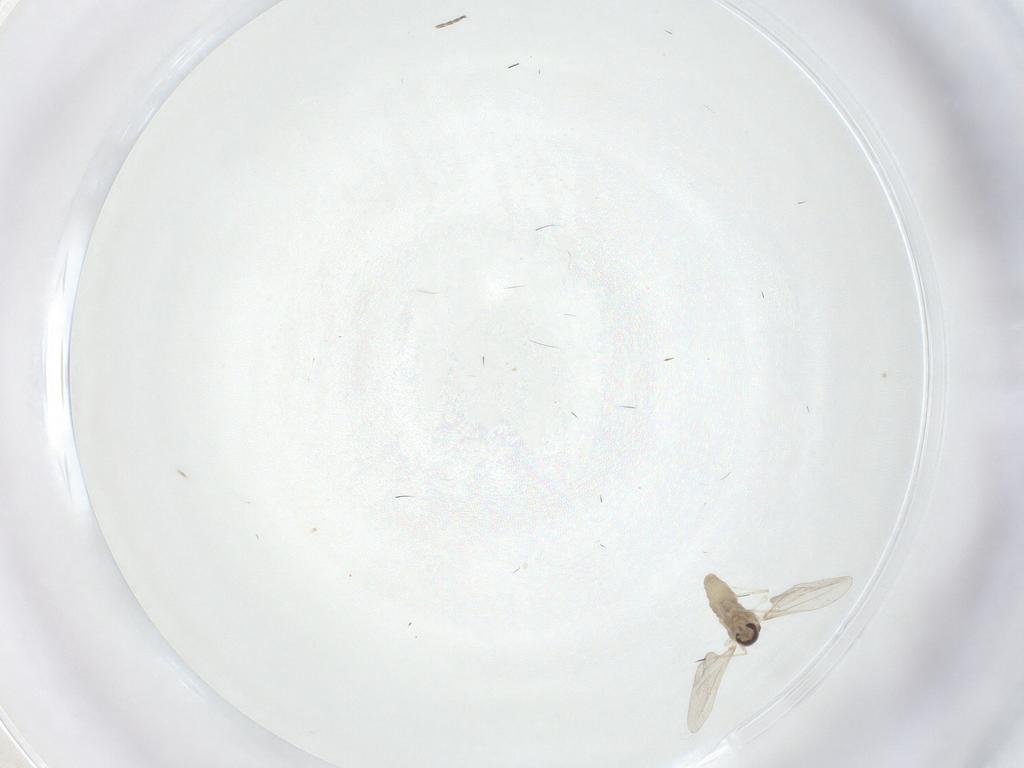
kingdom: Animalia
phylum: Arthropoda
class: Insecta
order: Diptera
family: Cecidomyiidae
